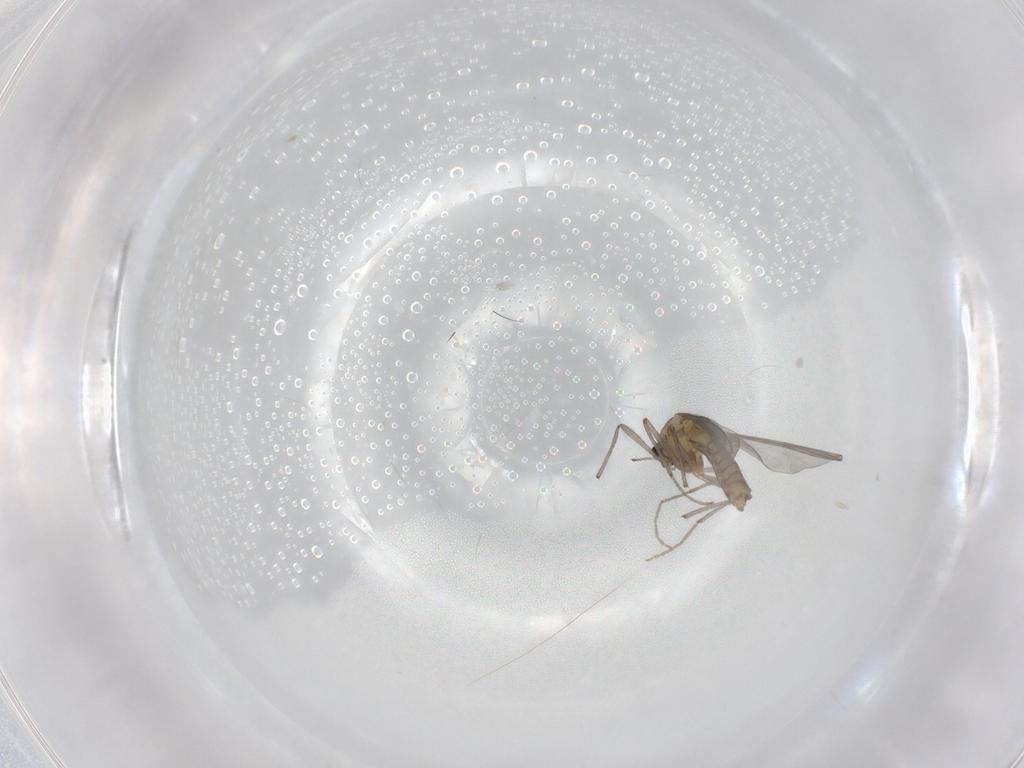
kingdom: Animalia
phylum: Arthropoda
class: Insecta
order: Diptera
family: Chironomidae
